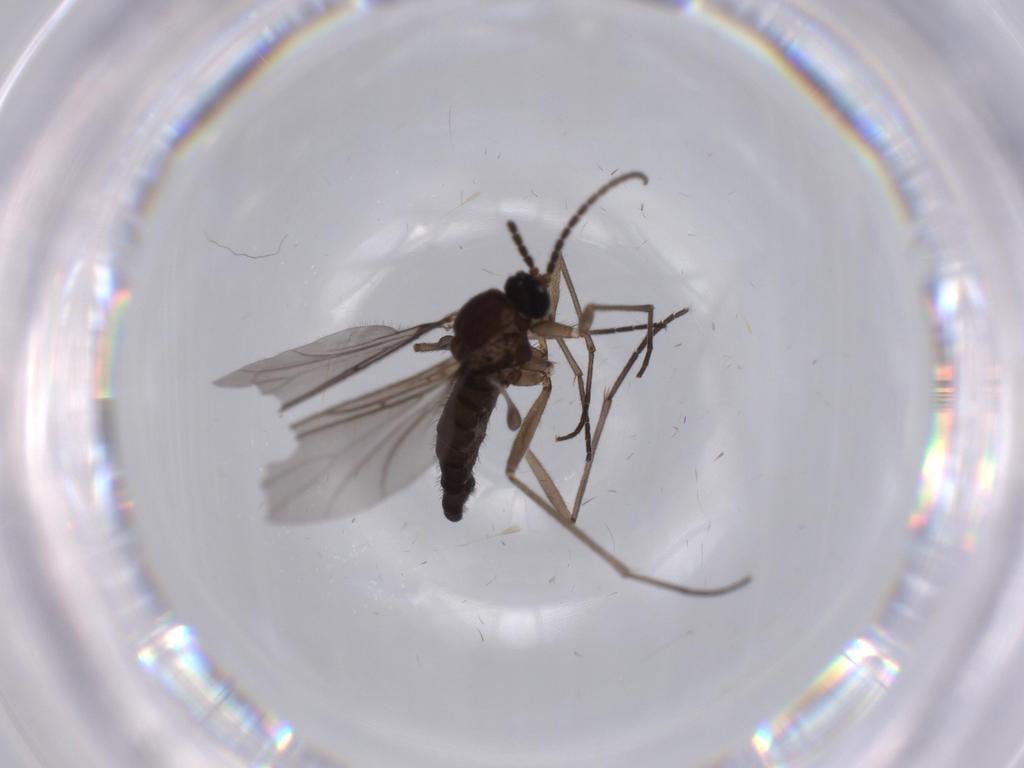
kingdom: Animalia
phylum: Arthropoda
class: Insecta
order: Diptera
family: Sciaridae
